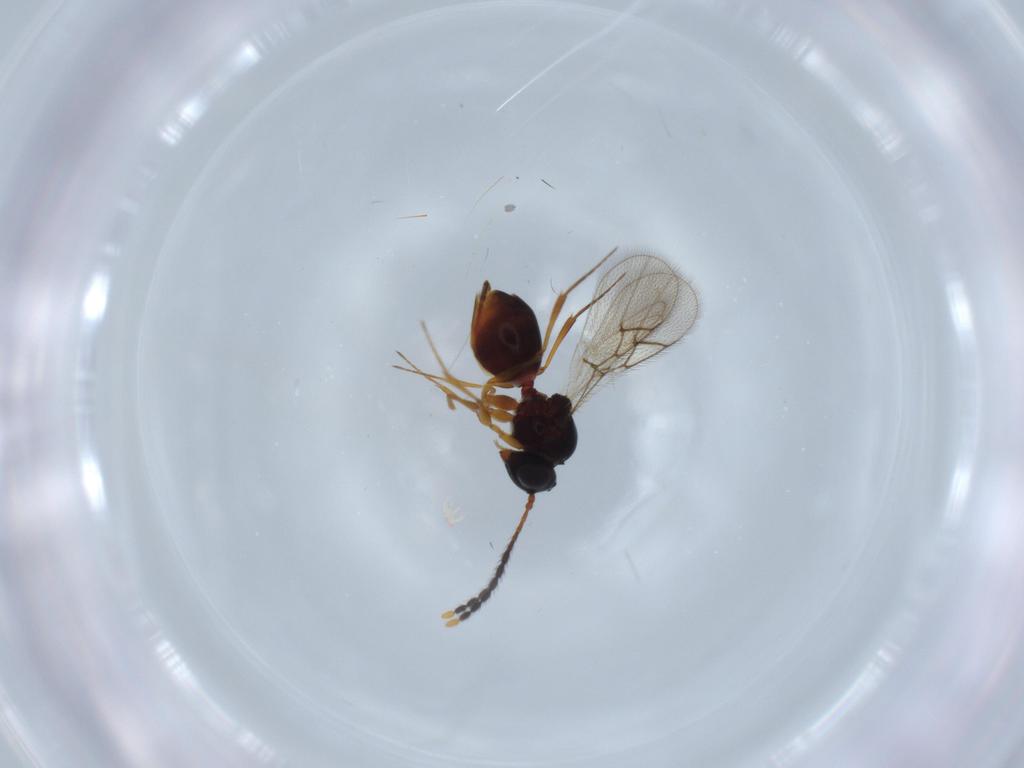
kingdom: Animalia
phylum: Arthropoda
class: Insecta
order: Hymenoptera
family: Figitidae
